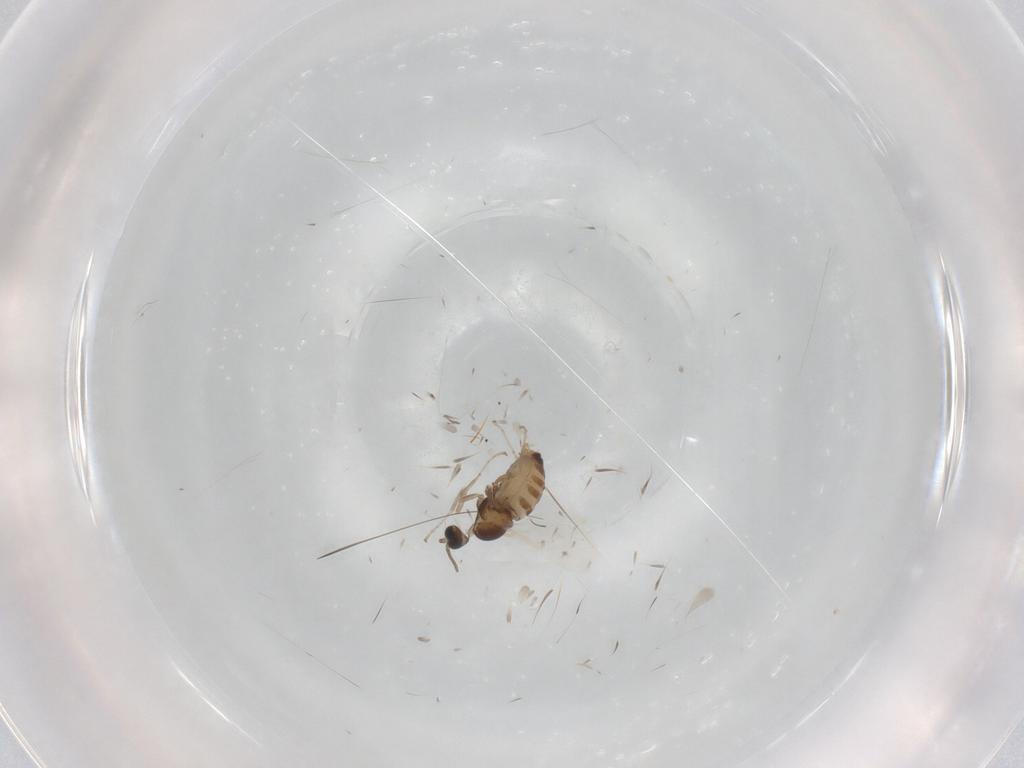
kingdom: Animalia
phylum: Arthropoda
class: Insecta
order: Diptera
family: Cecidomyiidae
